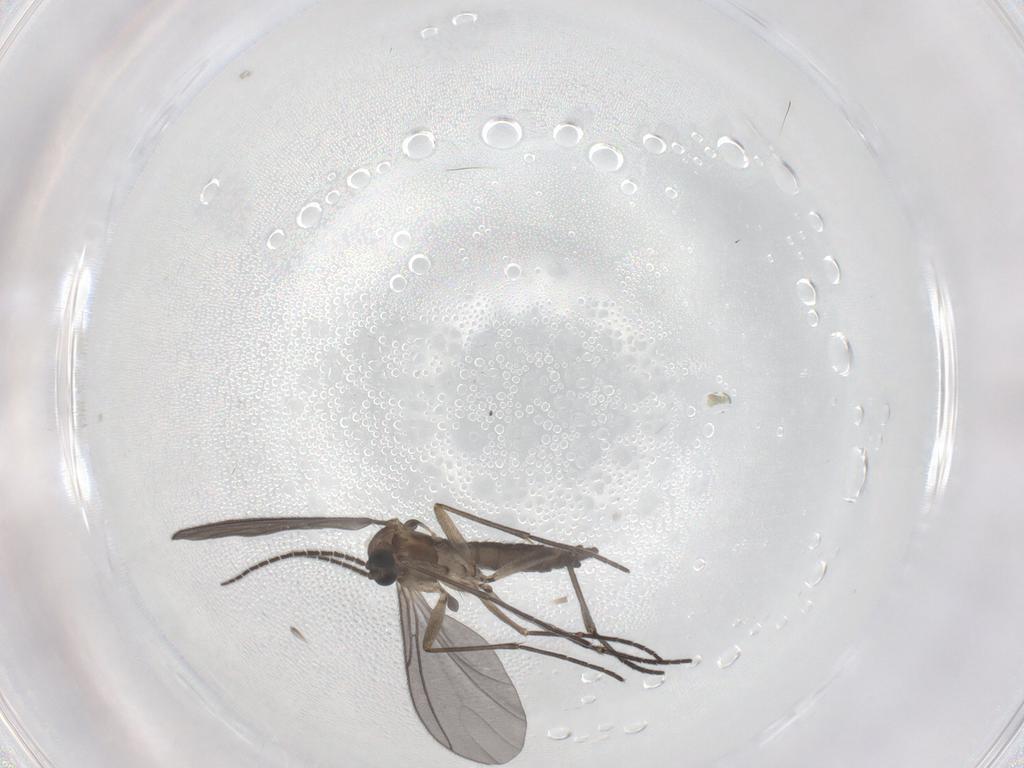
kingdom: Animalia
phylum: Arthropoda
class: Insecta
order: Diptera
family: Sciaridae
